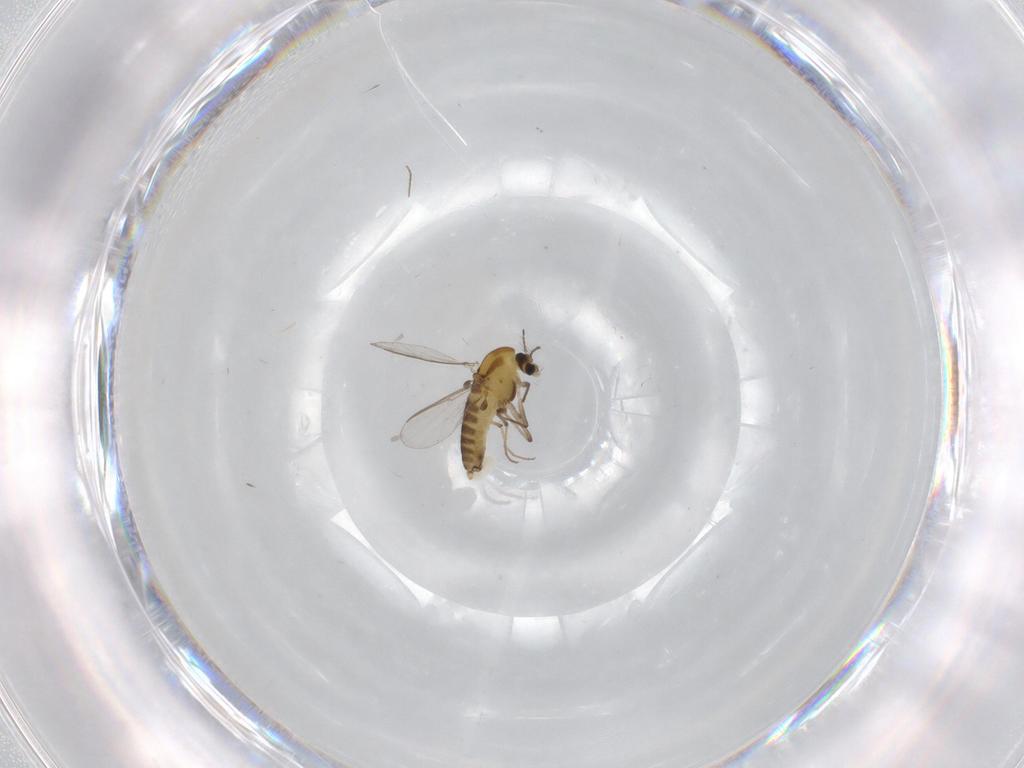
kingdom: Animalia
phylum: Arthropoda
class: Insecta
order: Diptera
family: Chironomidae
